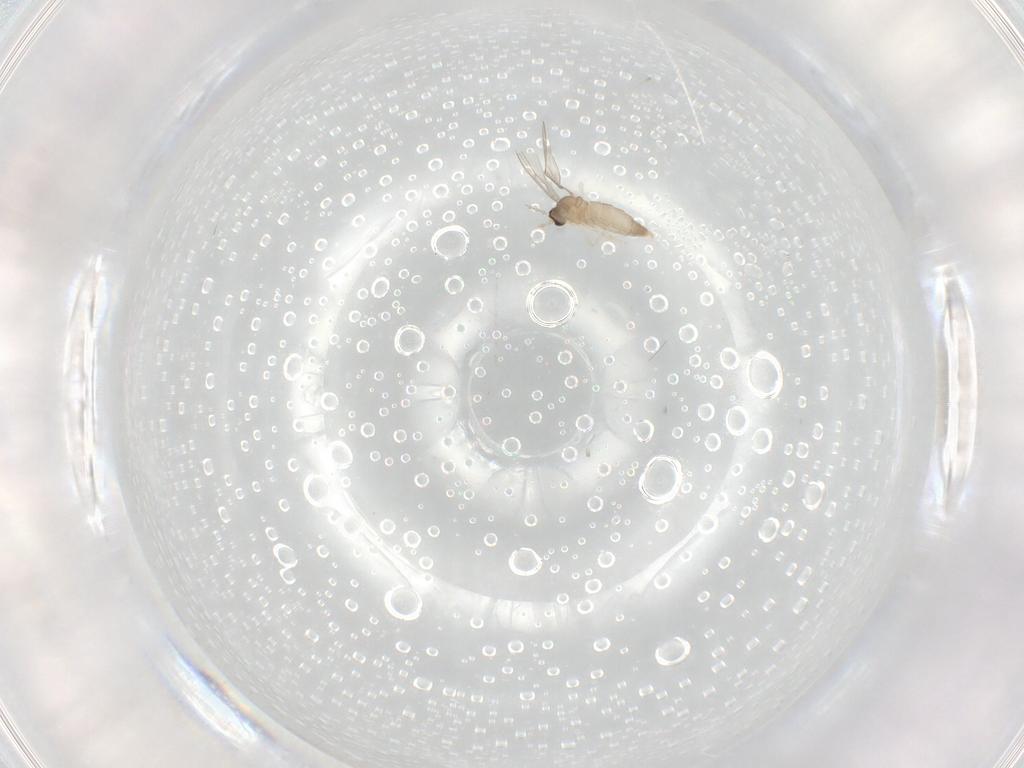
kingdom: Animalia
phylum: Arthropoda
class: Insecta
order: Diptera
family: Cecidomyiidae
